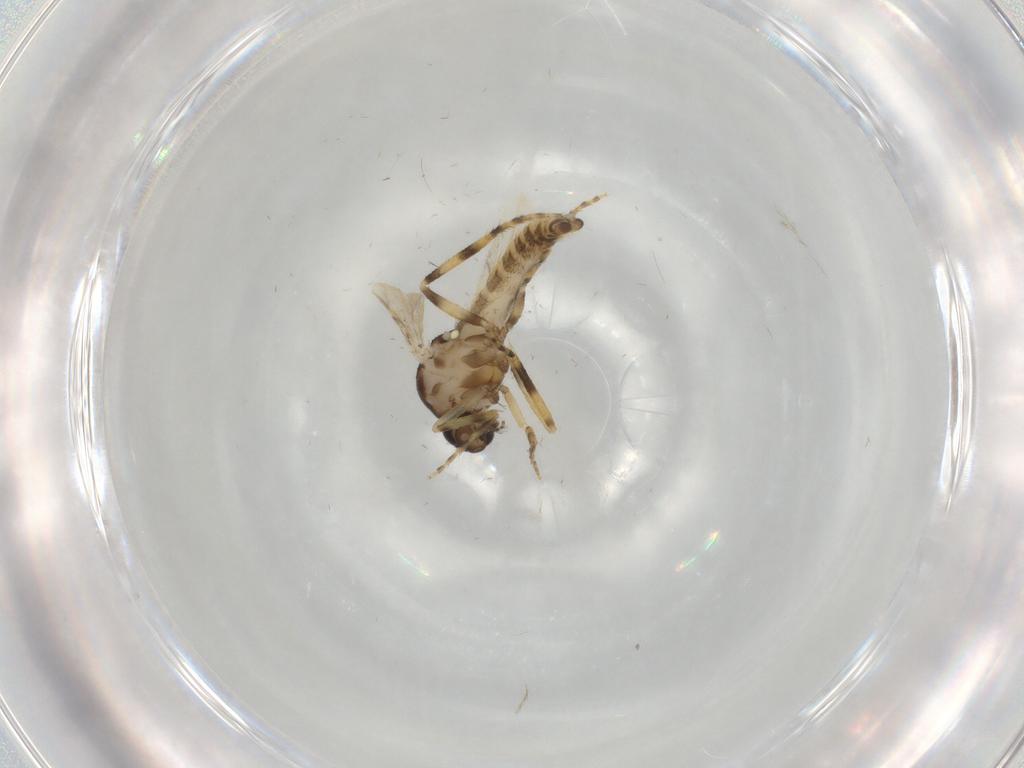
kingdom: Animalia
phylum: Arthropoda
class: Insecta
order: Diptera
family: Ceratopogonidae
